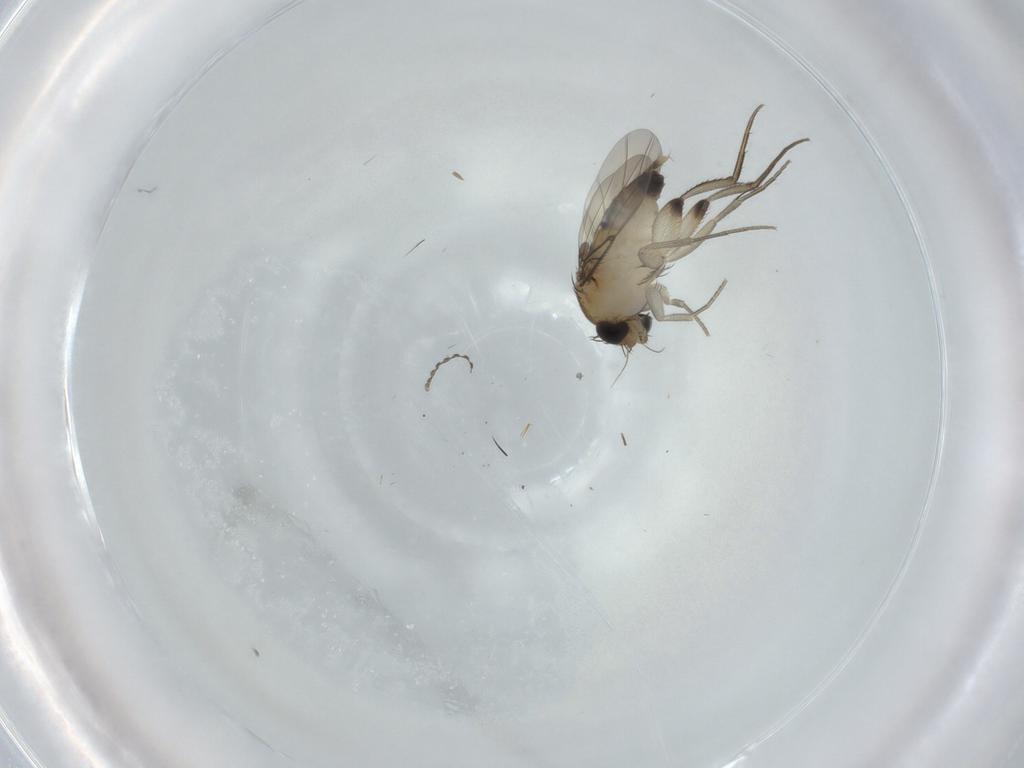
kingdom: Animalia
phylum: Arthropoda
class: Insecta
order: Diptera
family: Phoridae
